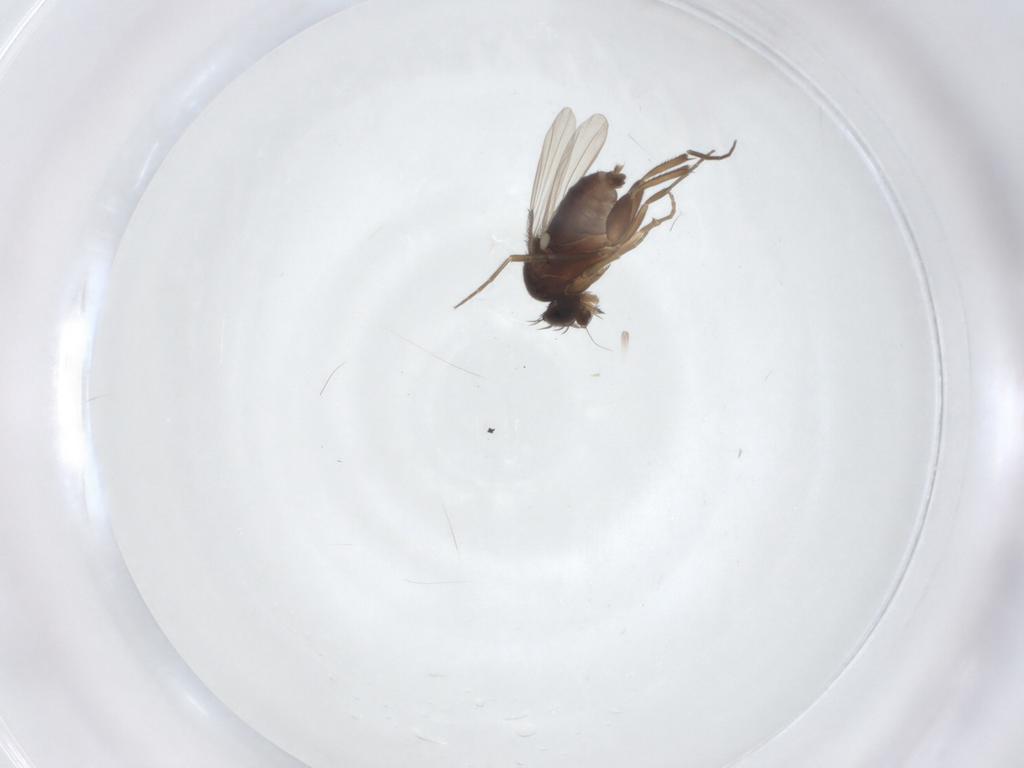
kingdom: Animalia
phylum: Arthropoda
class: Insecta
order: Diptera
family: Phoridae
